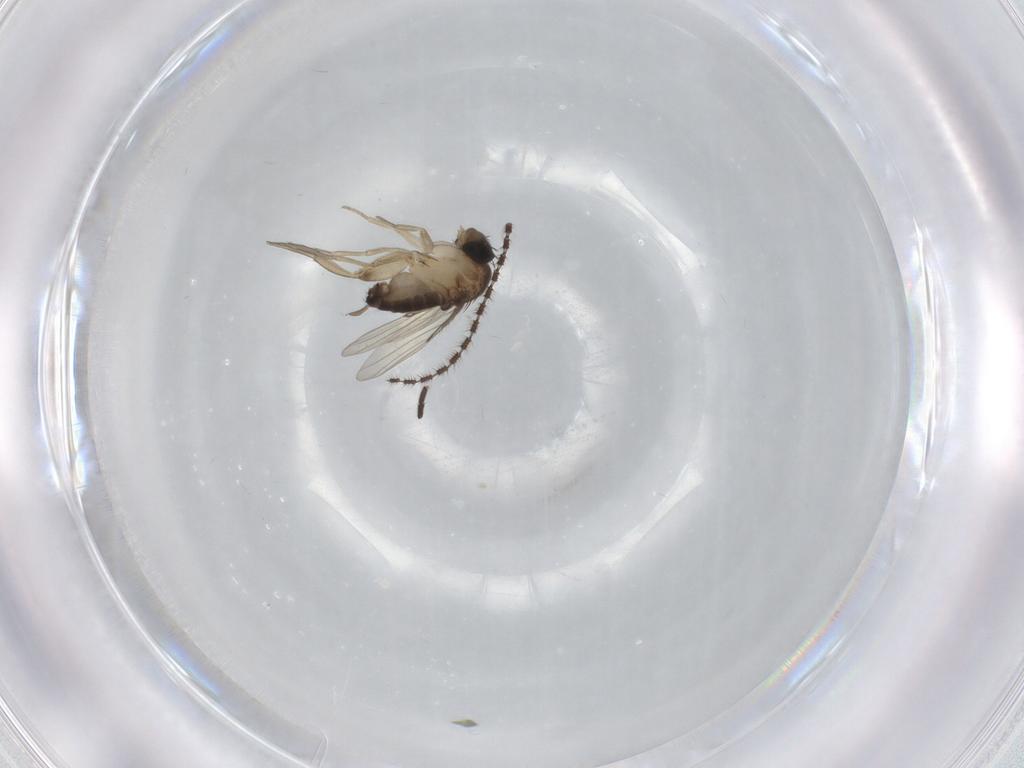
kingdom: Animalia
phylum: Arthropoda
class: Insecta
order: Diptera
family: Sciaridae
